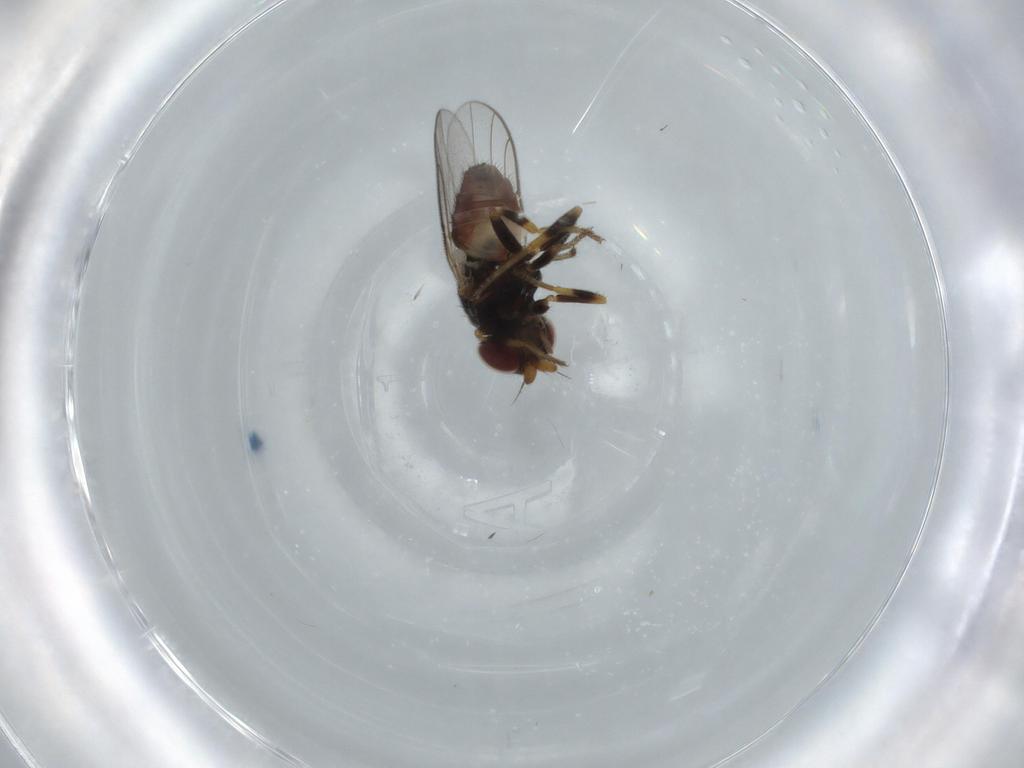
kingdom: Animalia
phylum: Arthropoda
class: Insecta
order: Diptera
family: Chloropidae
